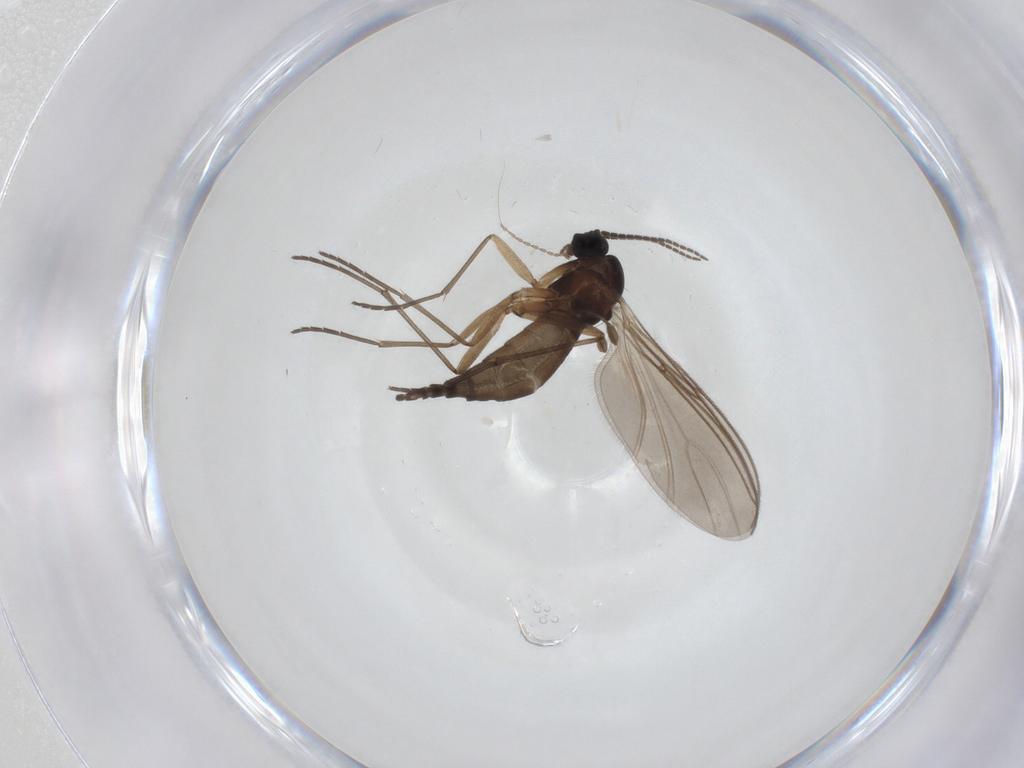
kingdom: Animalia
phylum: Arthropoda
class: Insecta
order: Diptera
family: Sciaridae
